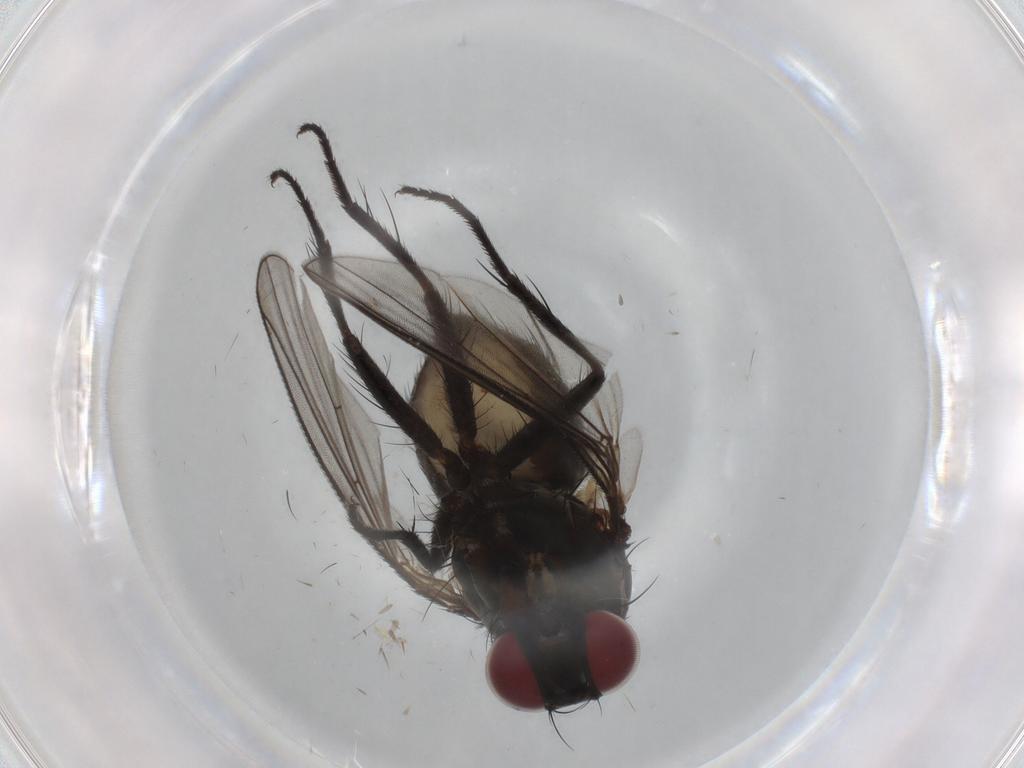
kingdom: Animalia
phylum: Arthropoda
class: Insecta
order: Diptera
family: Muscidae
